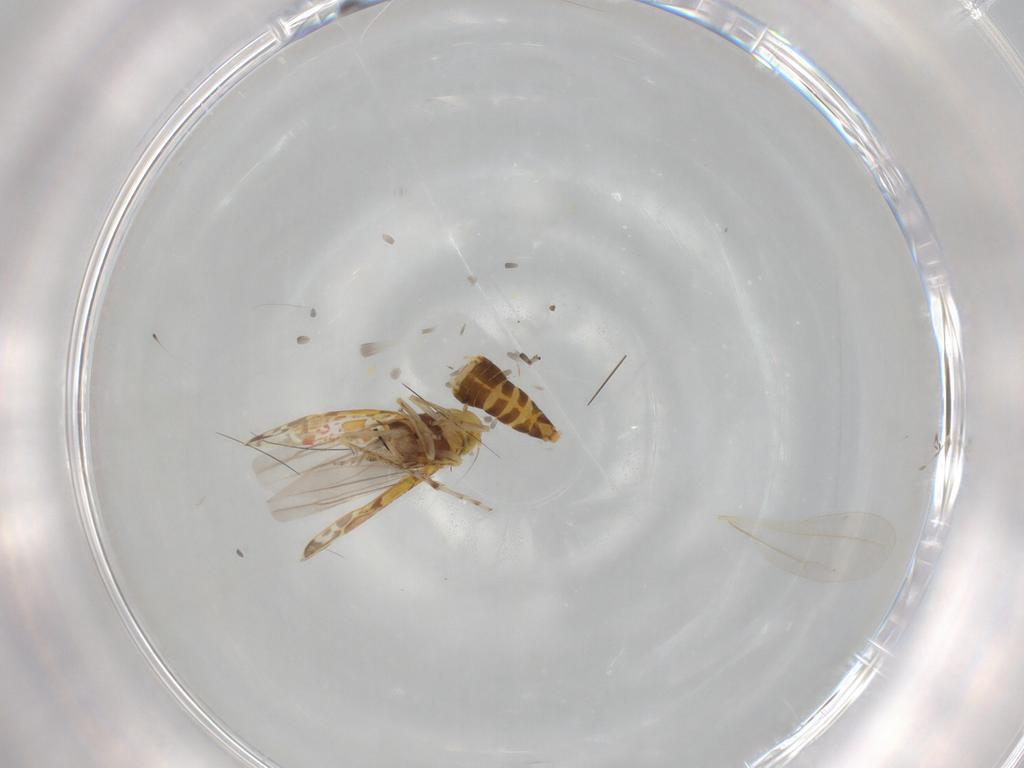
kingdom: Animalia
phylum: Arthropoda
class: Insecta
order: Hemiptera
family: Cicadellidae
